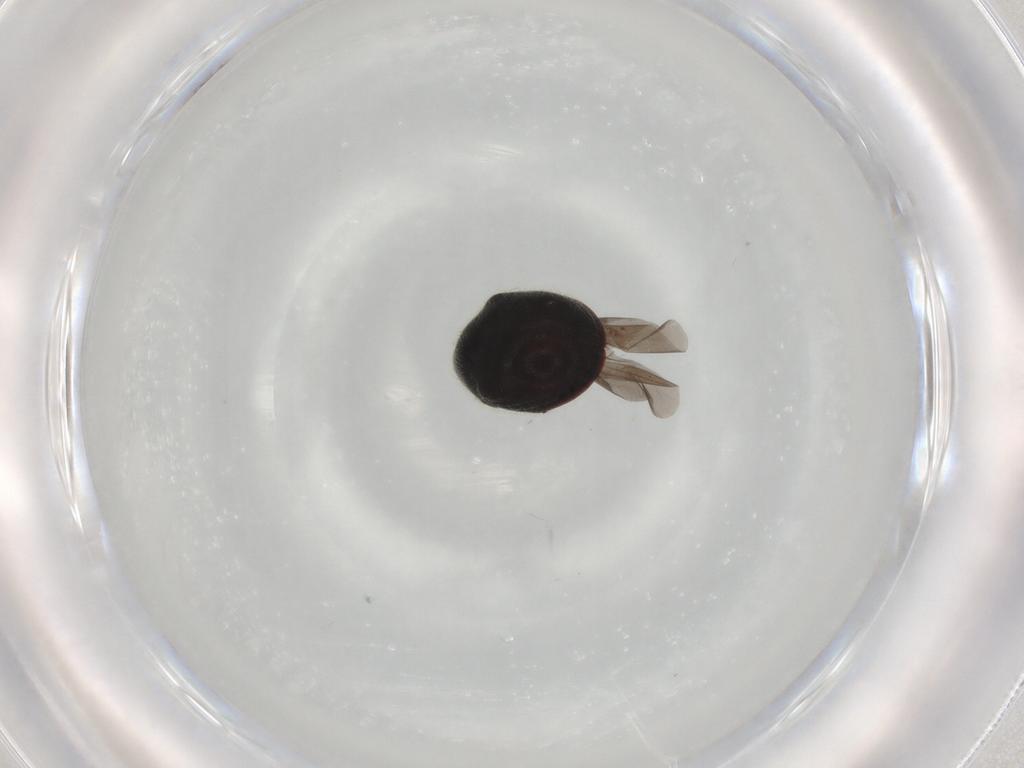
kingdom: Animalia
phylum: Arthropoda
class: Insecta
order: Coleoptera
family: Ptinidae
